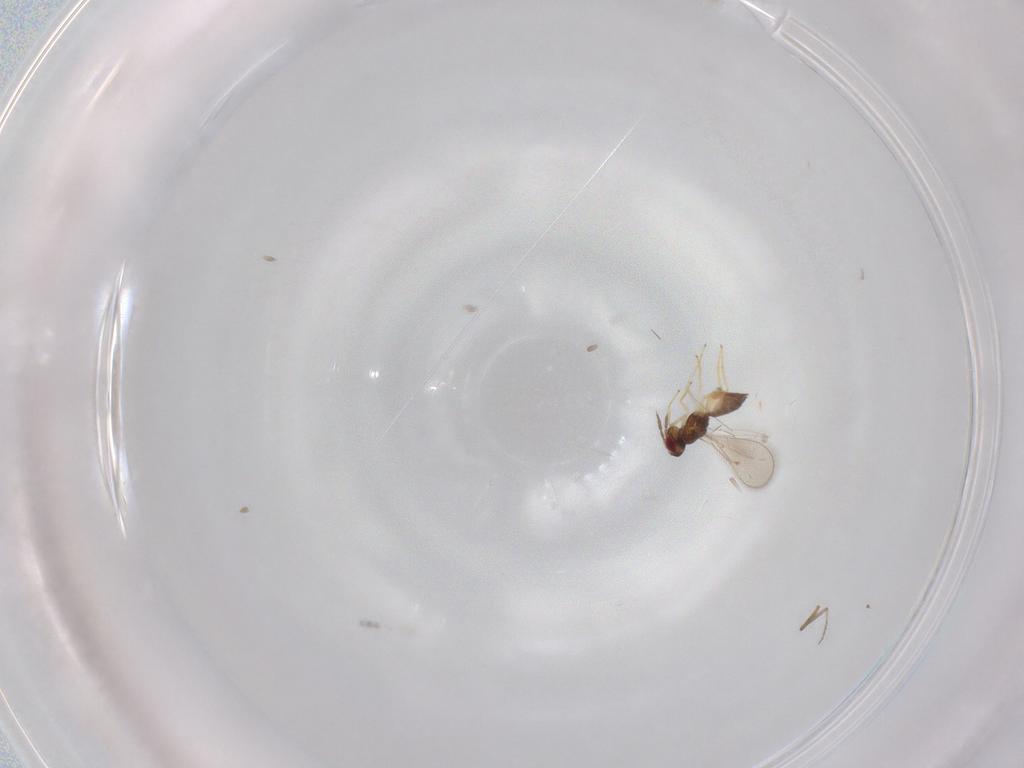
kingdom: Animalia
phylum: Arthropoda
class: Insecta
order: Hymenoptera
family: Eulophidae
